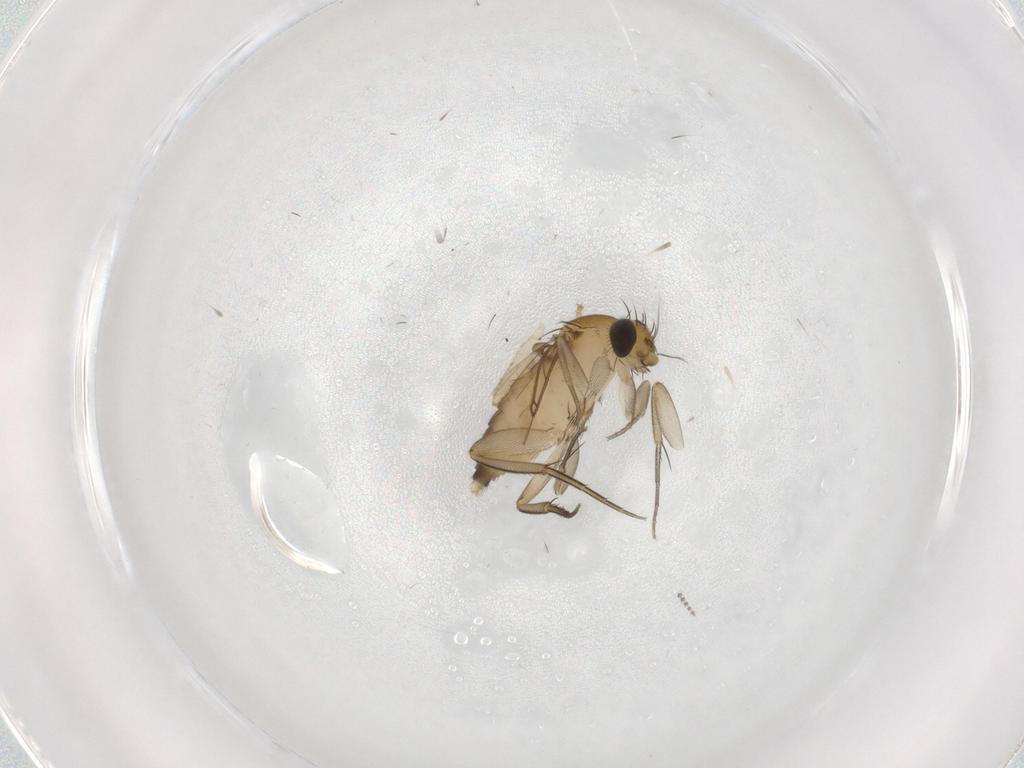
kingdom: Animalia
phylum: Arthropoda
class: Insecta
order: Diptera
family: Phoridae
